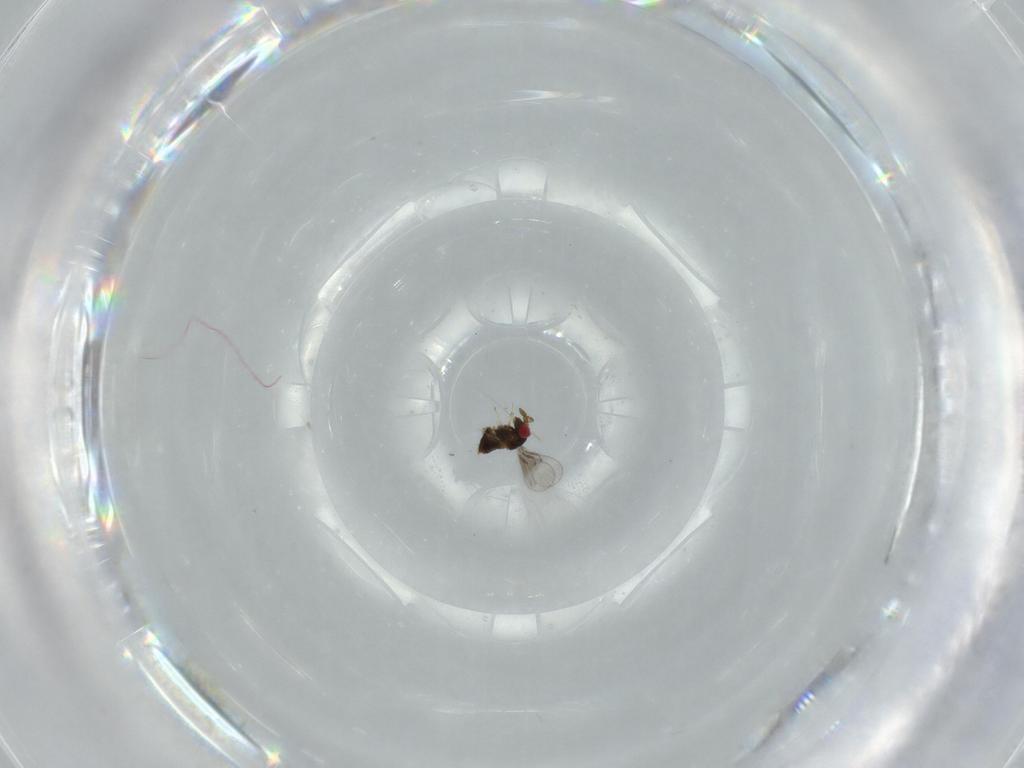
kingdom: Animalia
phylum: Arthropoda
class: Insecta
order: Hymenoptera
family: Trichogrammatidae
